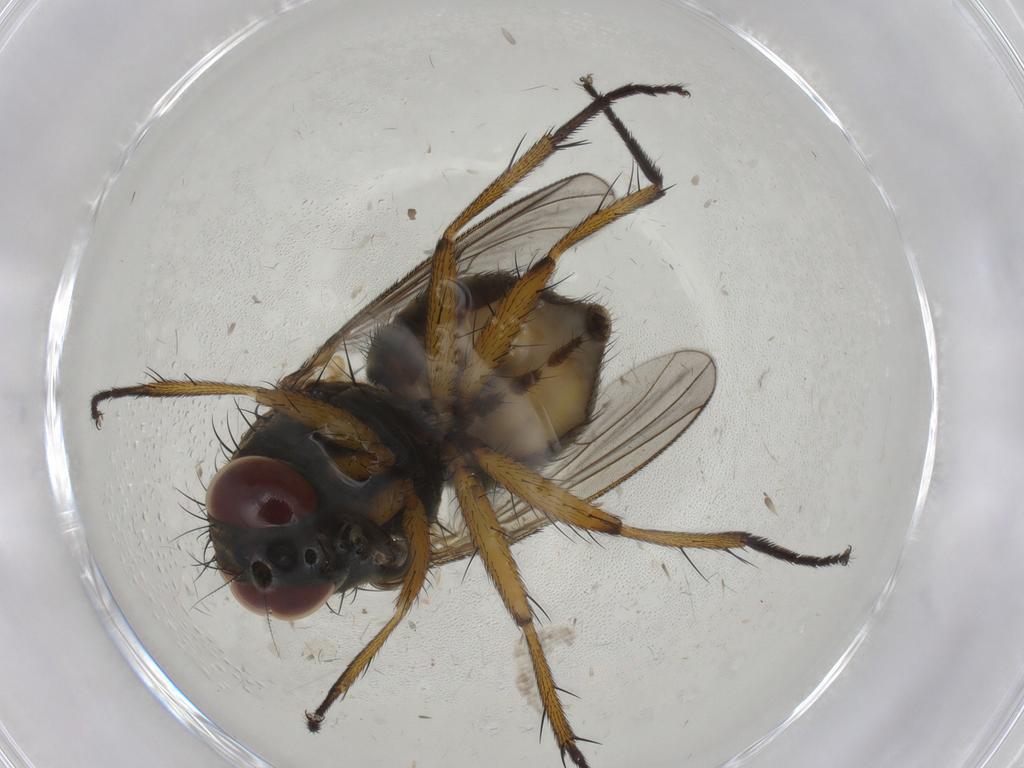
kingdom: Animalia
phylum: Arthropoda
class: Insecta
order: Diptera
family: Muscidae
